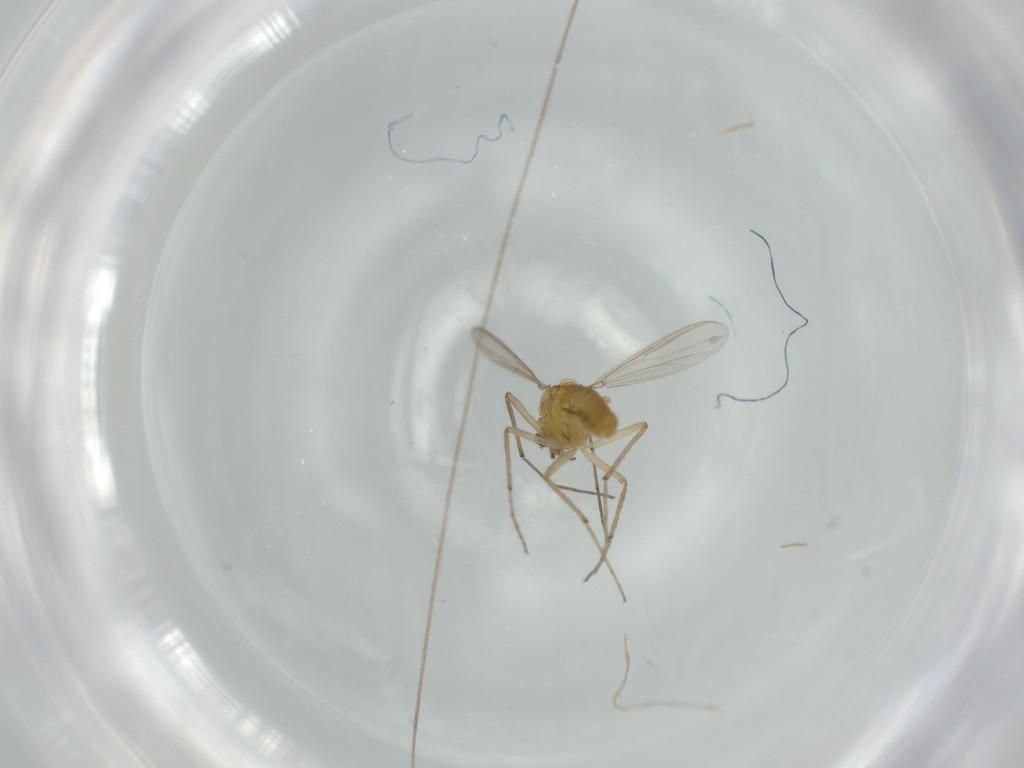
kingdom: Animalia
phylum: Arthropoda
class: Insecta
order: Diptera
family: Chironomidae
